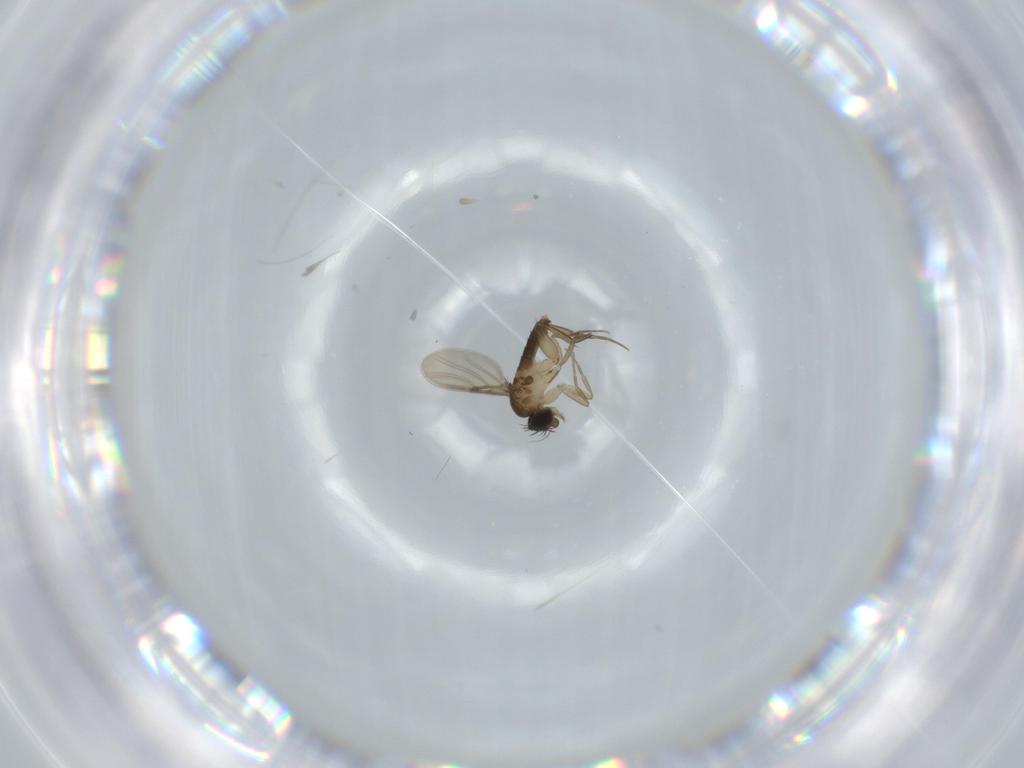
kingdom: Animalia
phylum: Arthropoda
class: Insecta
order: Diptera
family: Phoridae
